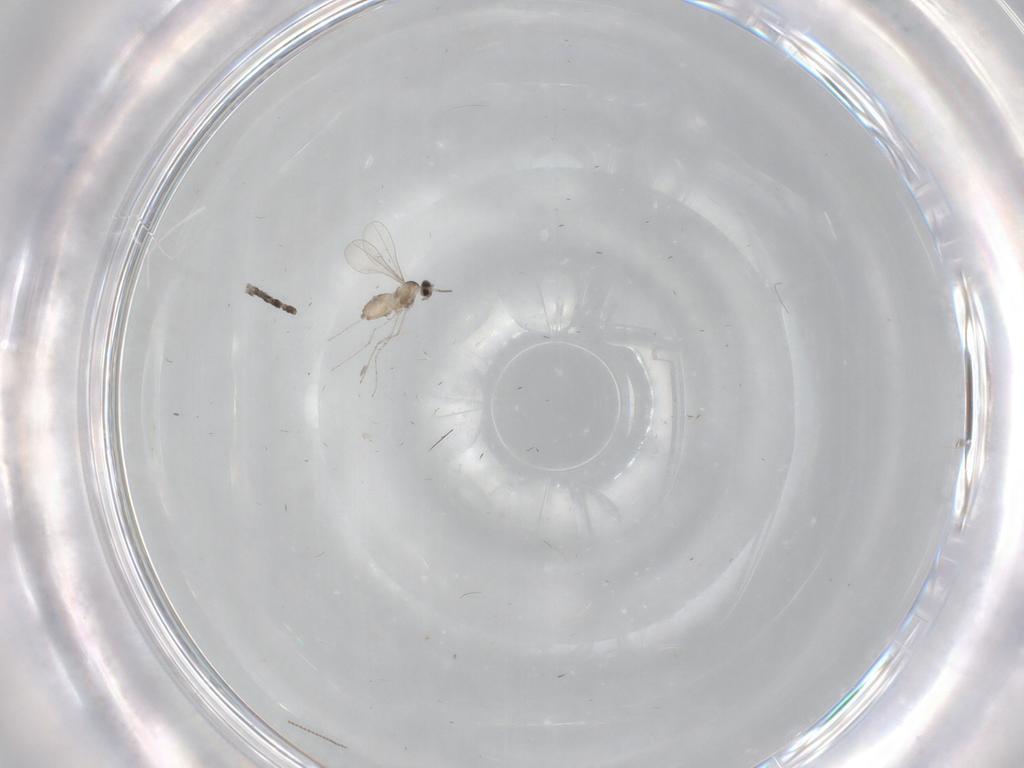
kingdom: Animalia
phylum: Arthropoda
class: Insecta
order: Diptera
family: Cecidomyiidae
